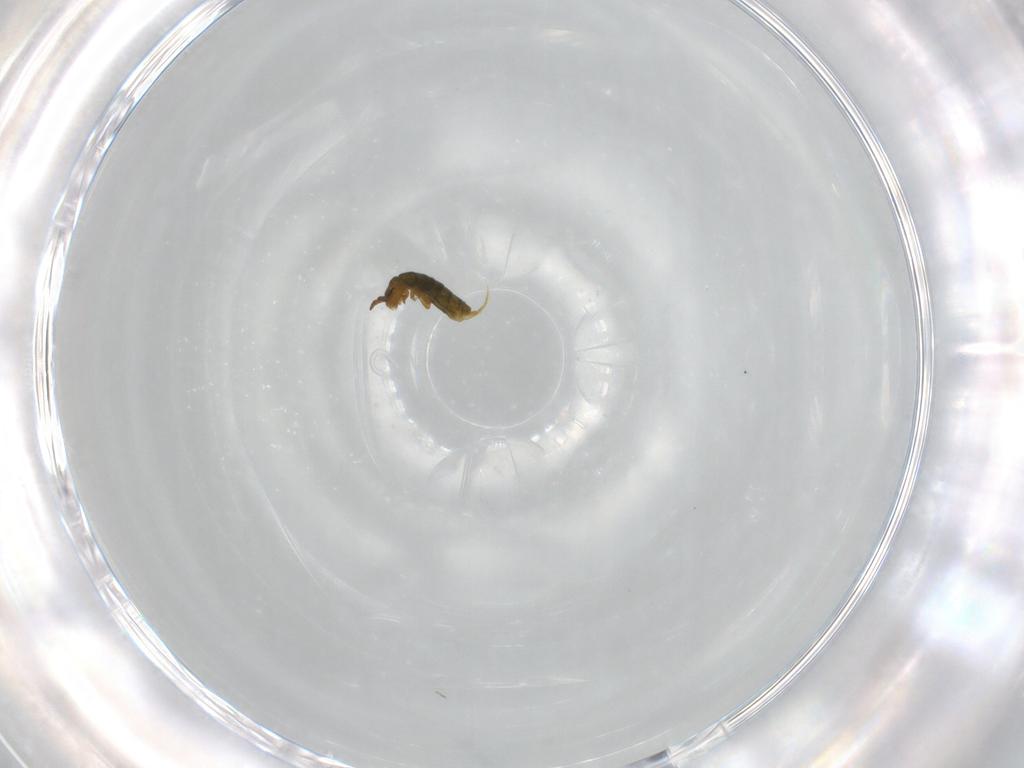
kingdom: Animalia
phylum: Arthropoda
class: Collembola
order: Entomobryomorpha
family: Isotomidae
